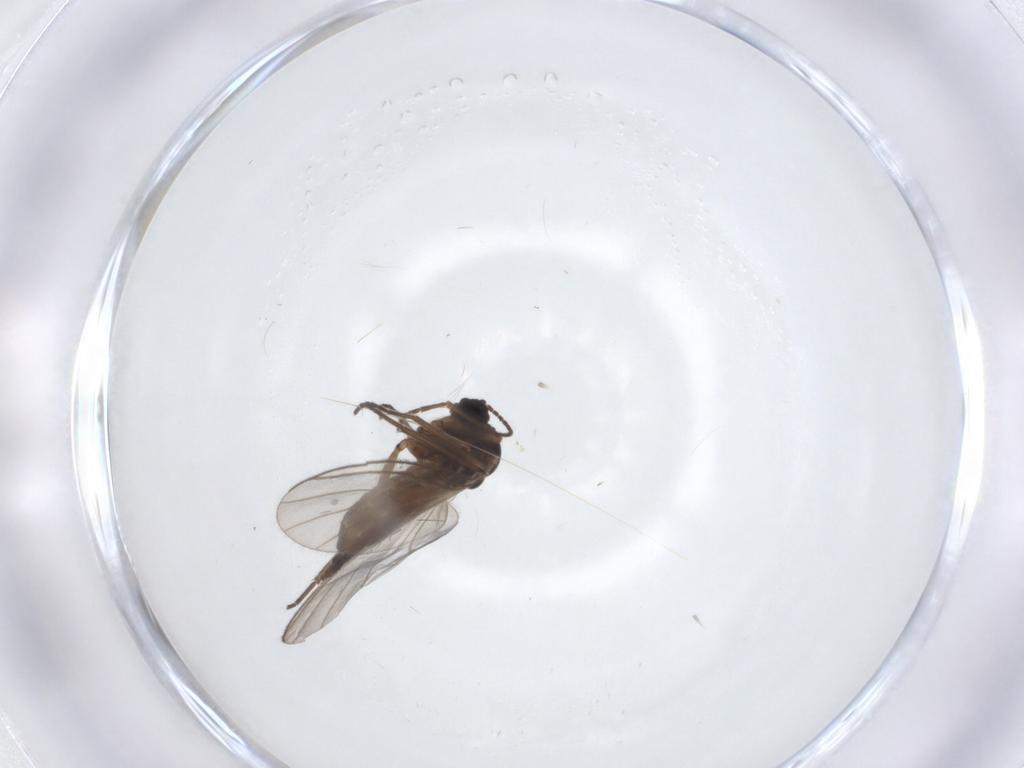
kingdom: Animalia
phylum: Arthropoda
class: Insecta
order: Diptera
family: Sciaridae
